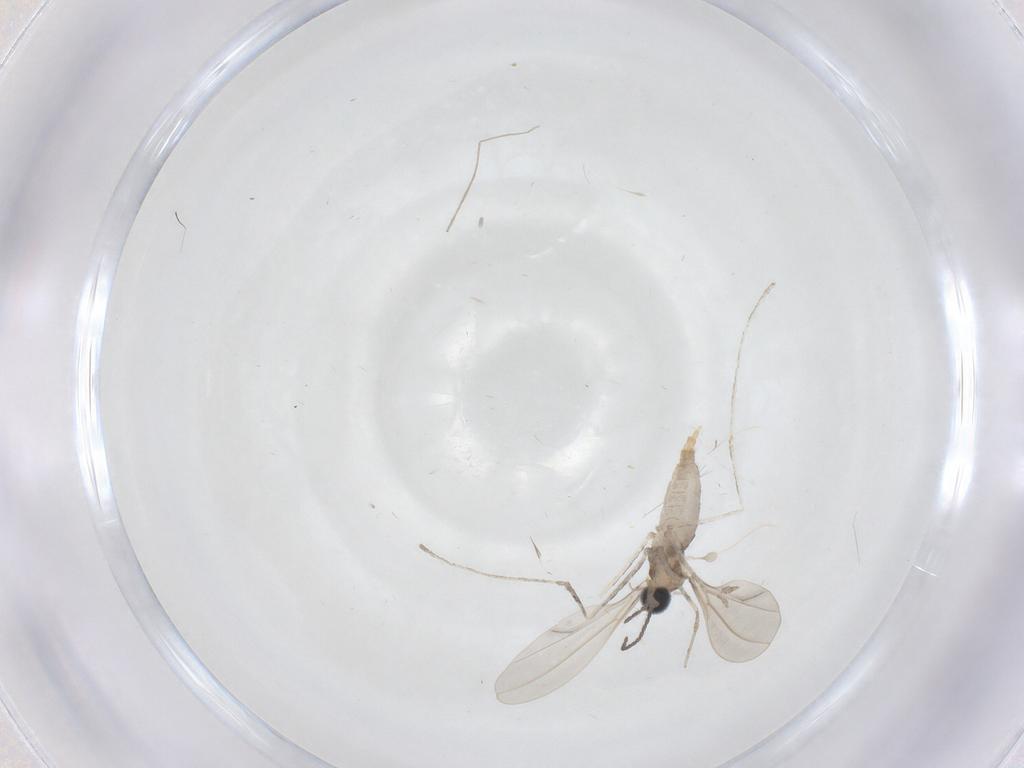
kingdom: Animalia
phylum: Arthropoda
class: Insecta
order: Diptera
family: Cecidomyiidae
